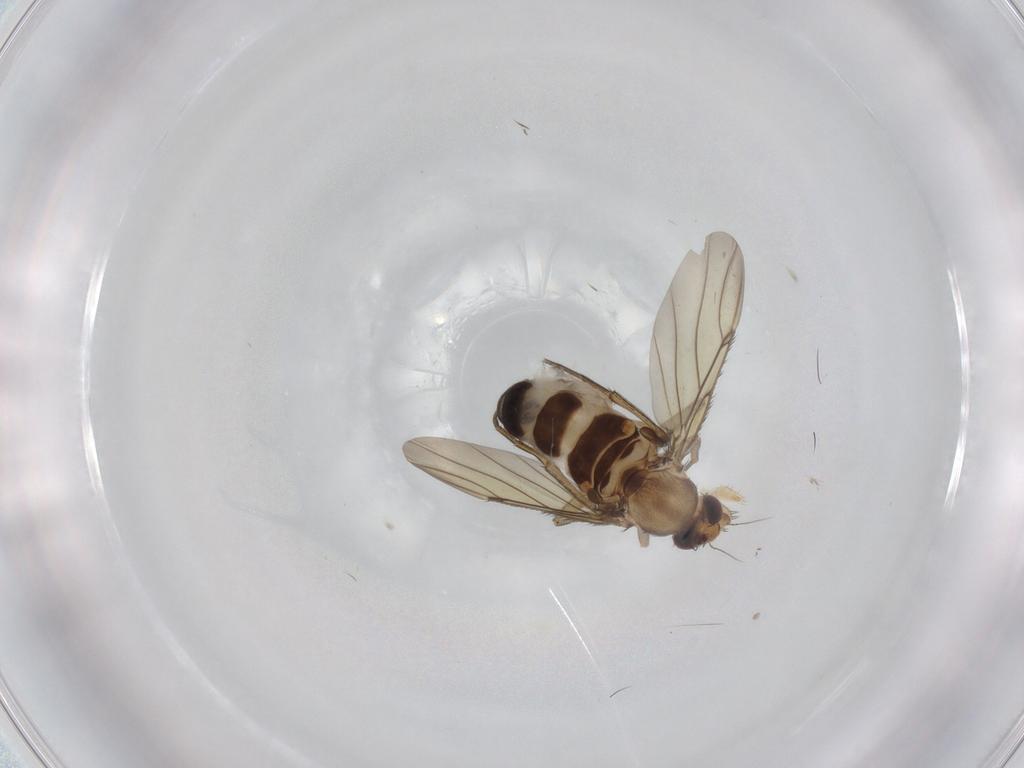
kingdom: Animalia
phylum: Arthropoda
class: Insecta
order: Diptera
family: Phoridae
